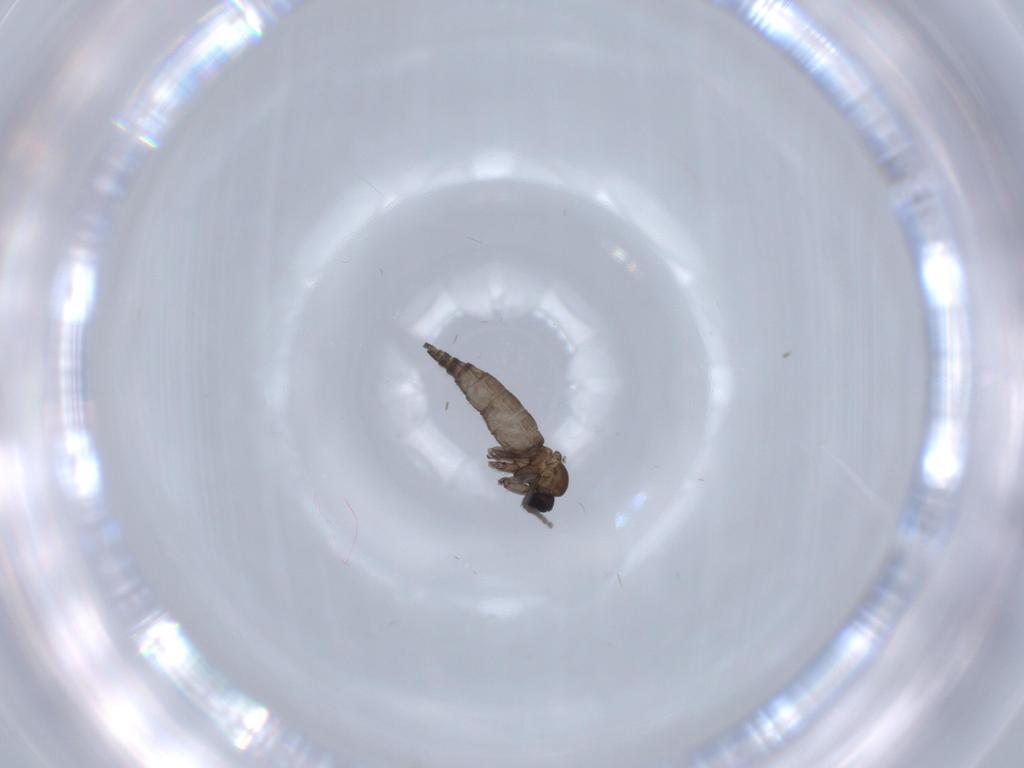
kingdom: Animalia
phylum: Arthropoda
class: Insecta
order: Diptera
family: Sciaridae
